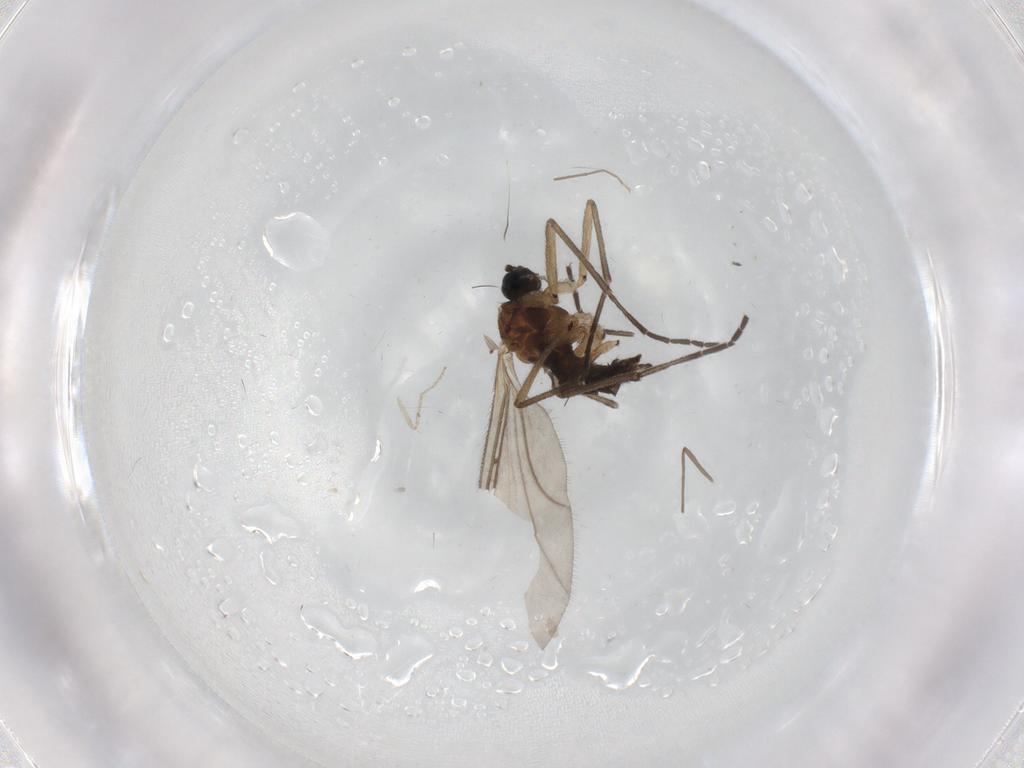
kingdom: Animalia
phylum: Arthropoda
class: Insecta
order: Diptera
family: Sciaridae
